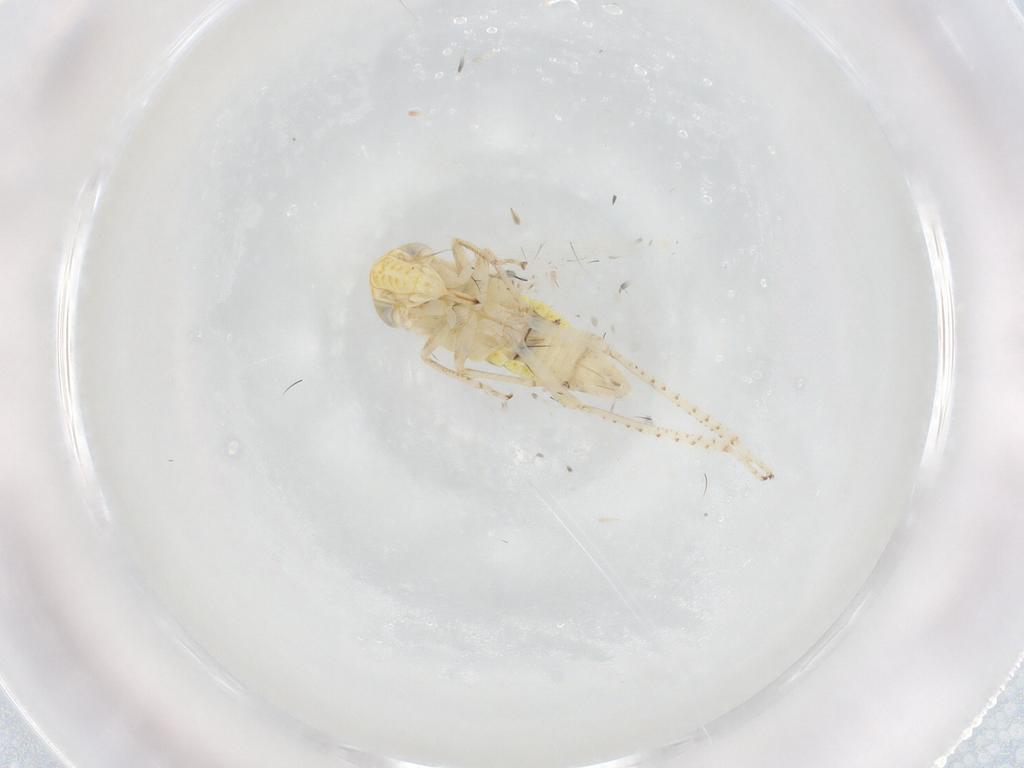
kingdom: Animalia
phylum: Arthropoda
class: Insecta
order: Hemiptera
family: Cicadellidae
